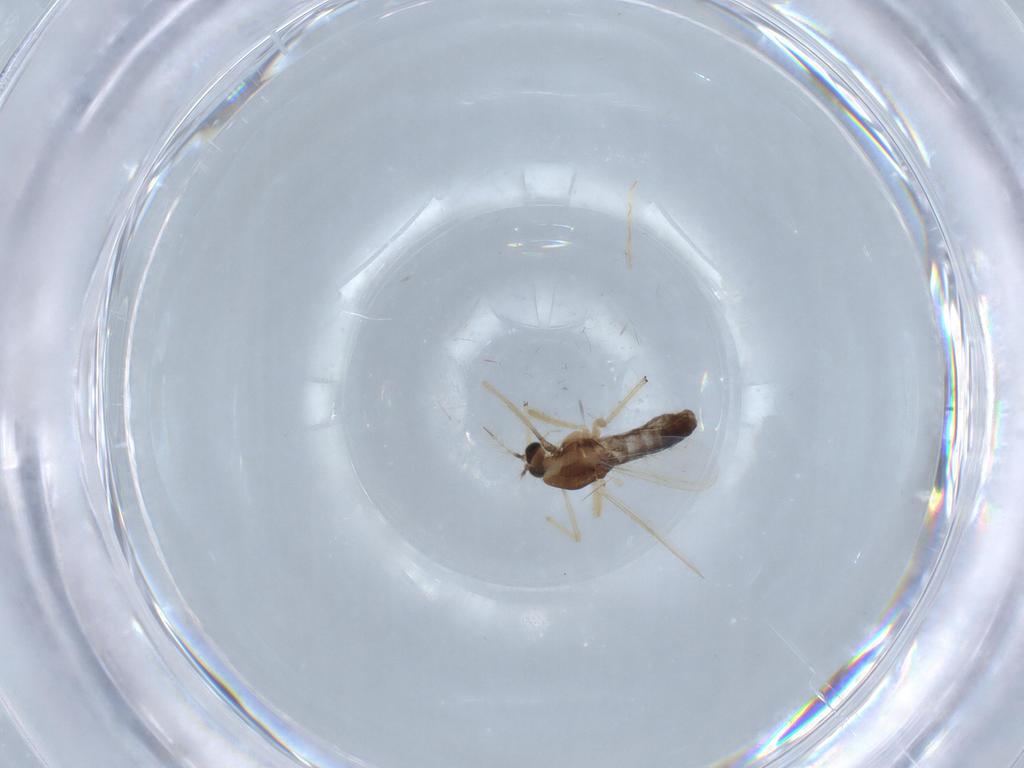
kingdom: Animalia
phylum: Arthropoda
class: Insecta
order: Diptera
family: Chironomidae
